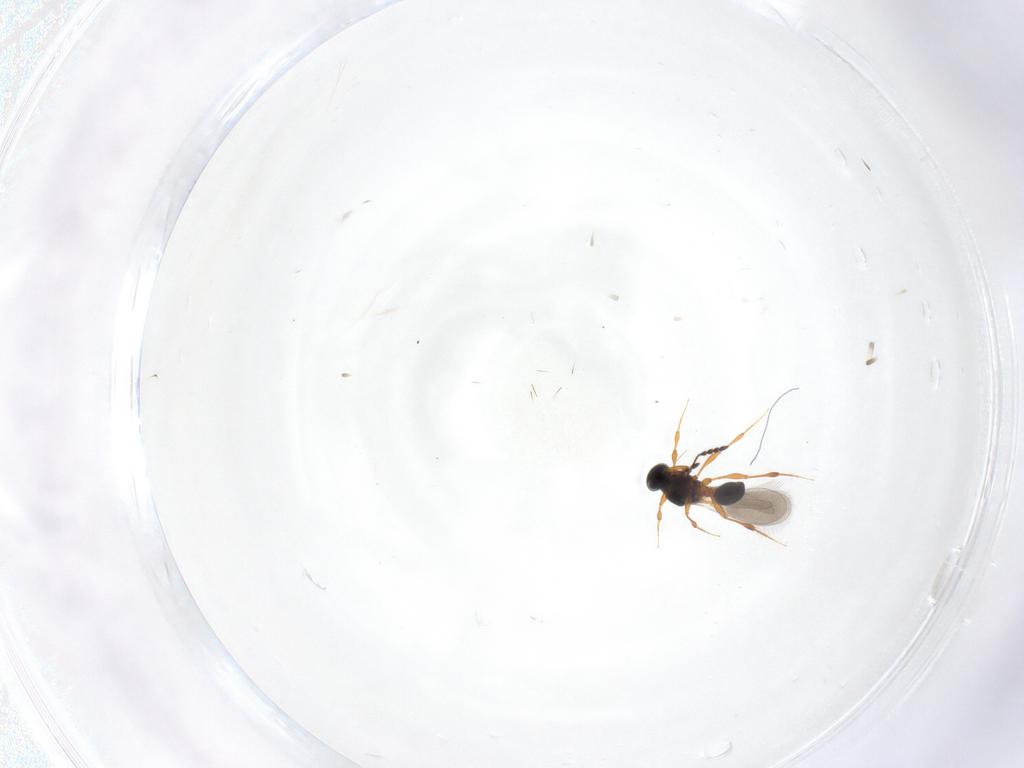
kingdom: Animalia
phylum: Arthropoda
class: Insecta
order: Hymenoptera
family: Platygastridae
